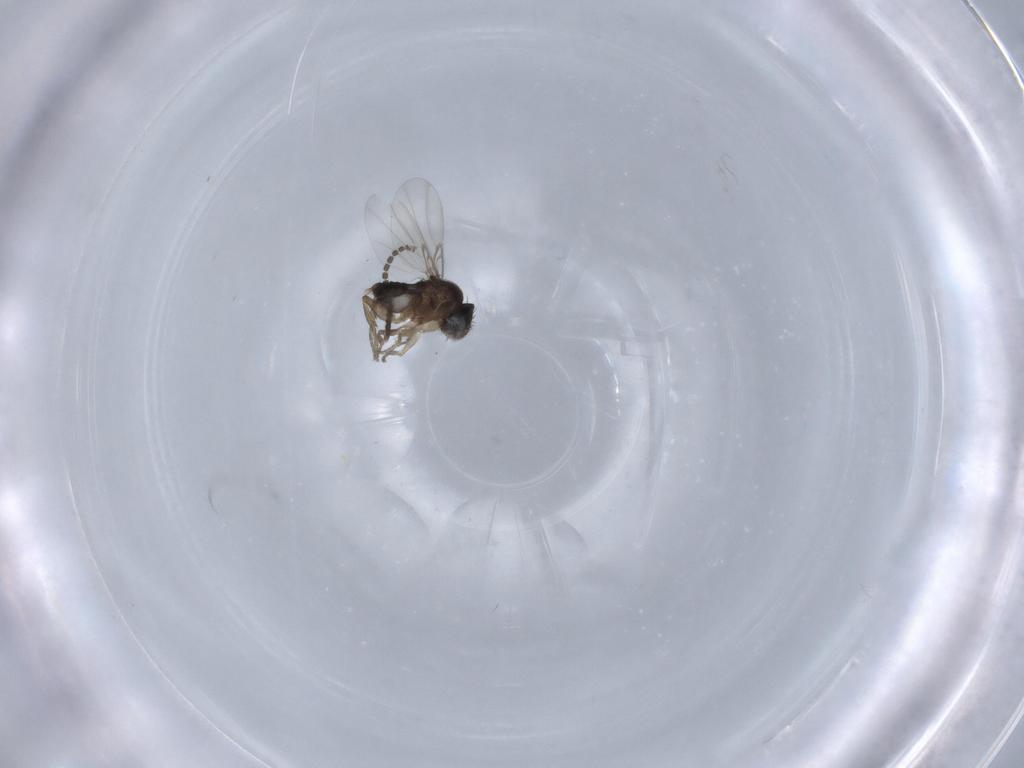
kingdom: Animalia
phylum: Arthropoda
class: Insecta
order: Diptera
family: Phoridae
